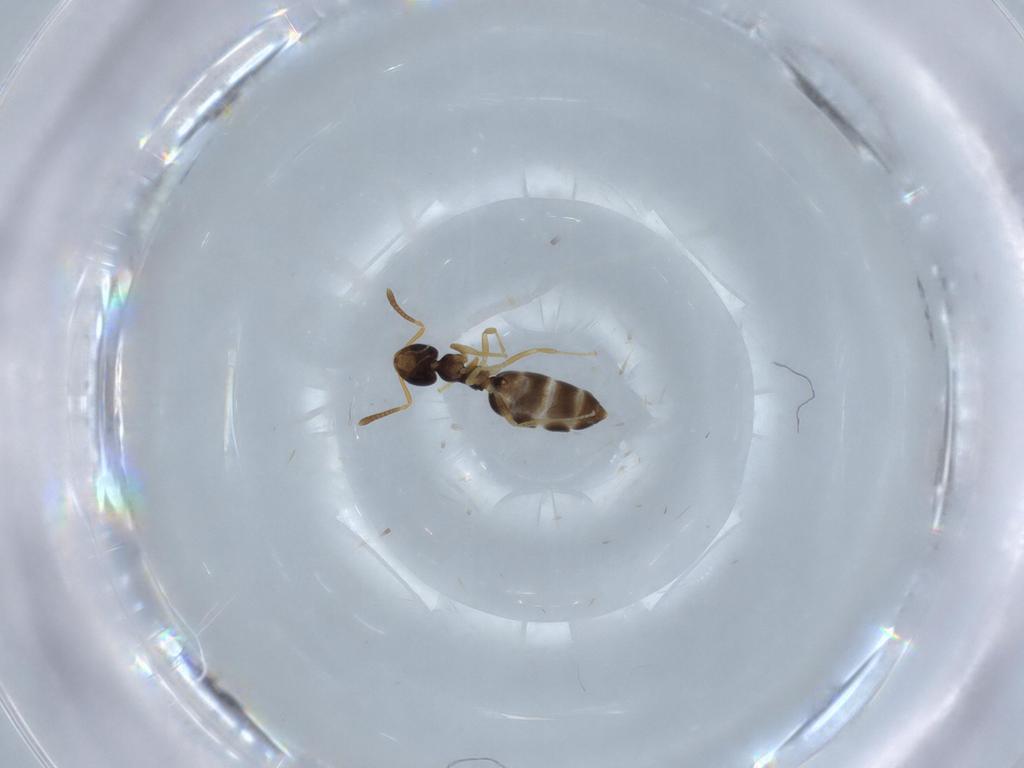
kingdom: Animalia
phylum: Arthropoda
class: Insecta
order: Hymenoptera
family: Formicidae
